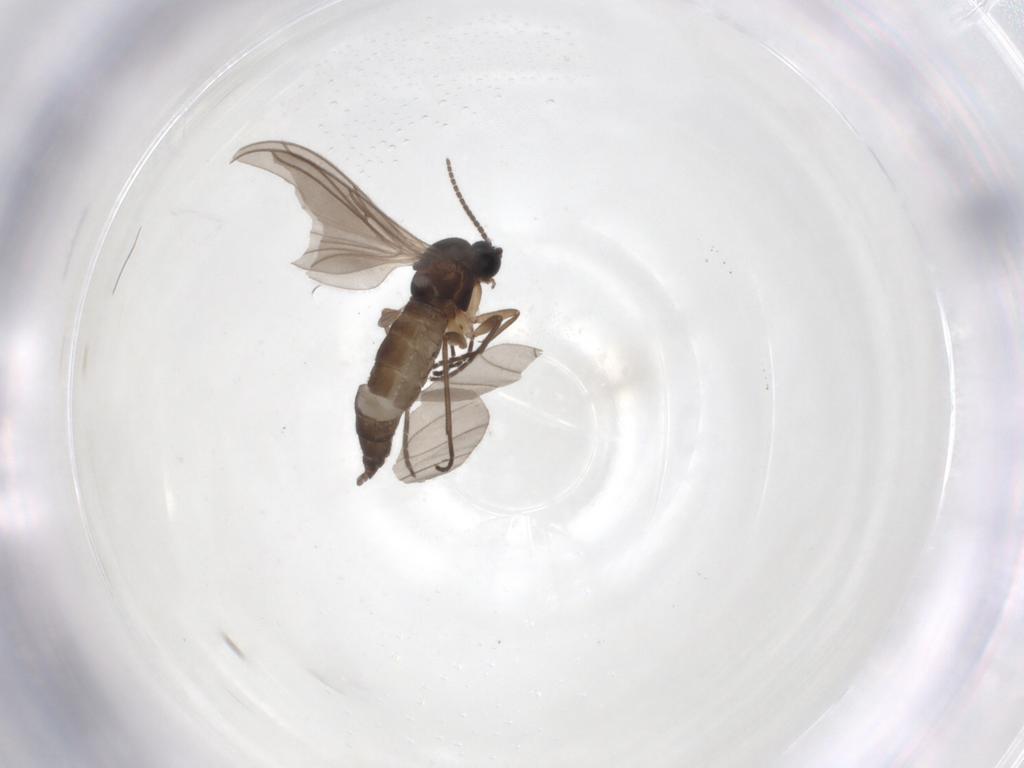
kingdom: Animalia
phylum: Arthropoda
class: Insecta
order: Diptera
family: Sciaridae
